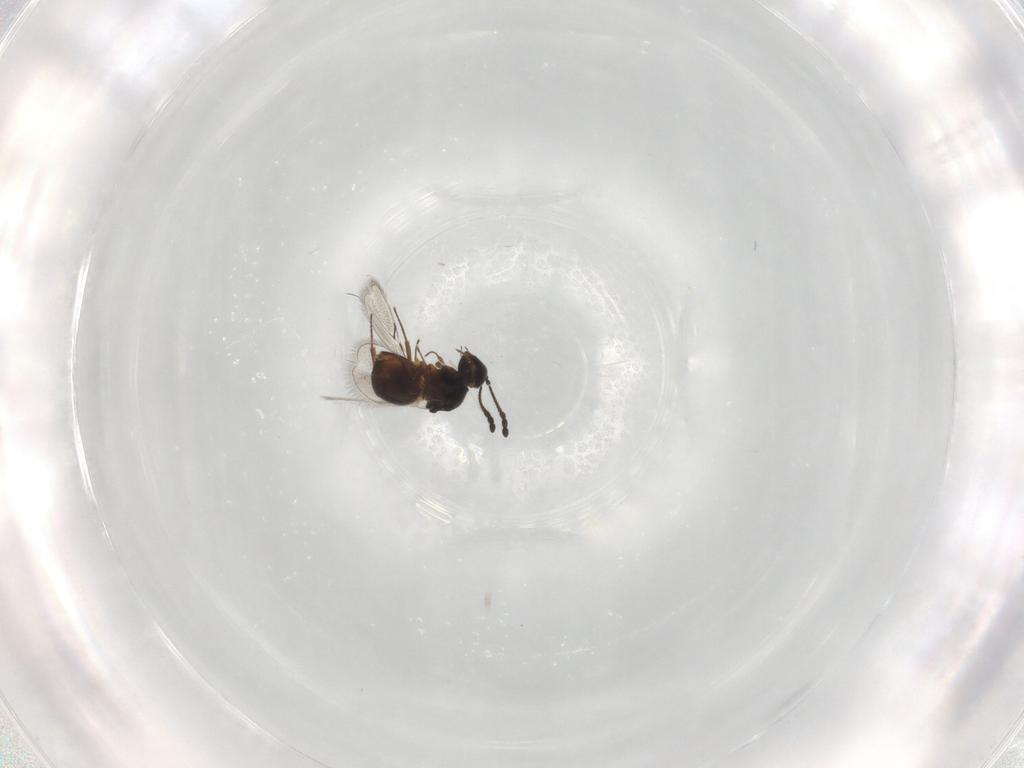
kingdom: Animalia
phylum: Arthropoda
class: Insecta
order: Hymenoptera
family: Figitidae
